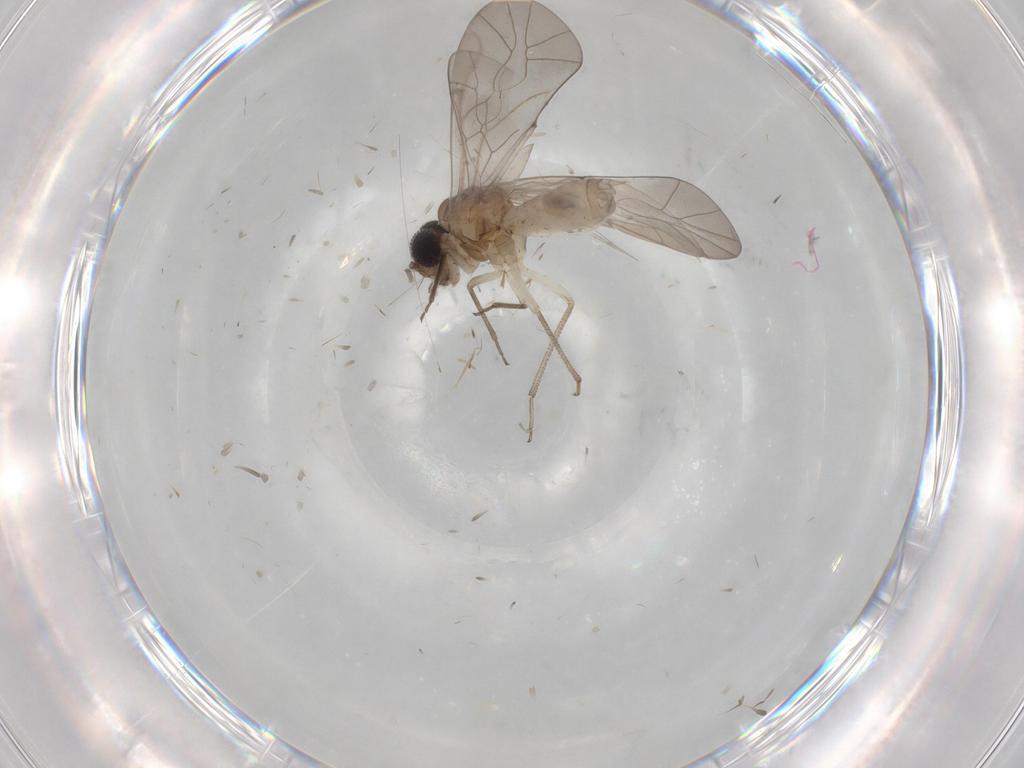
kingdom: Animalia
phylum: Arthropoda
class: Insecta
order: Psocodea
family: Peripsocidae
